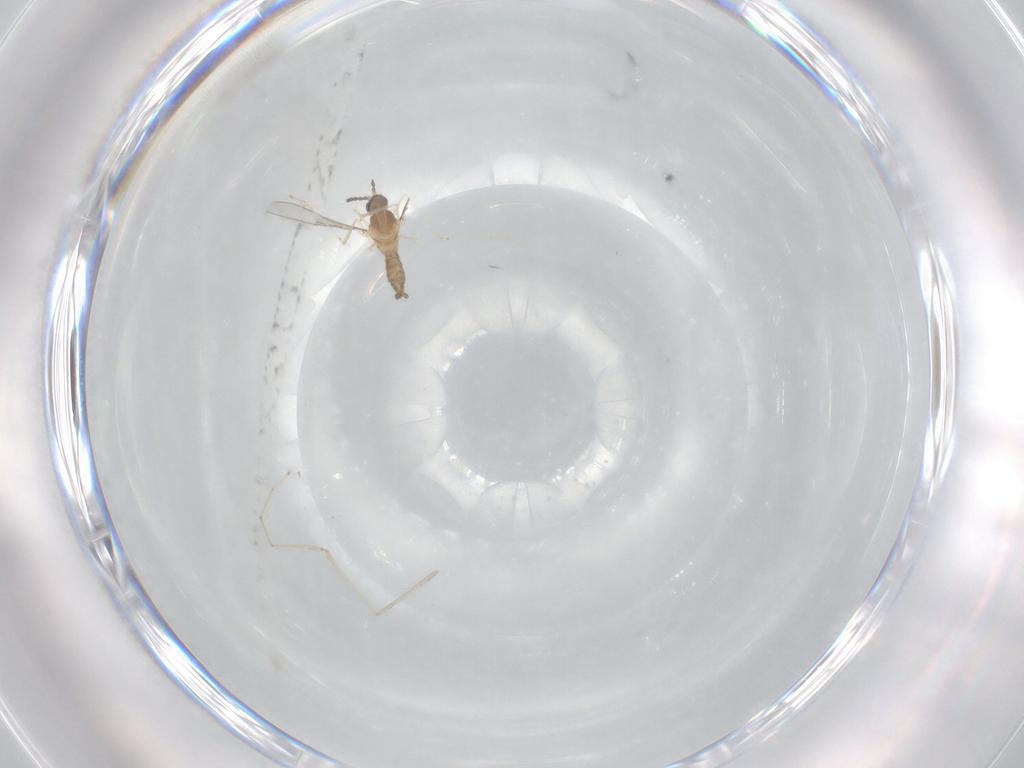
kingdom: Animalia
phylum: Arthropoda
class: Insecta
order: Diptera
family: Cecidomyiidae
